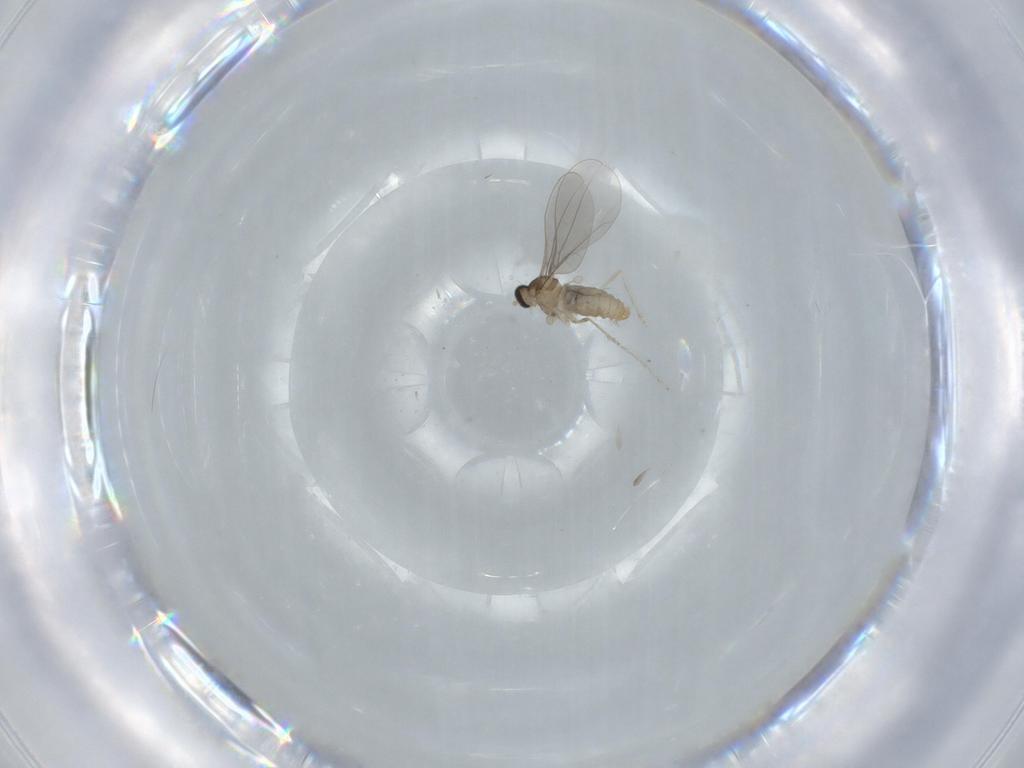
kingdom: Animalia
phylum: Arthropoda
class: Insecta
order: Diptera
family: Cecidomyiidae
